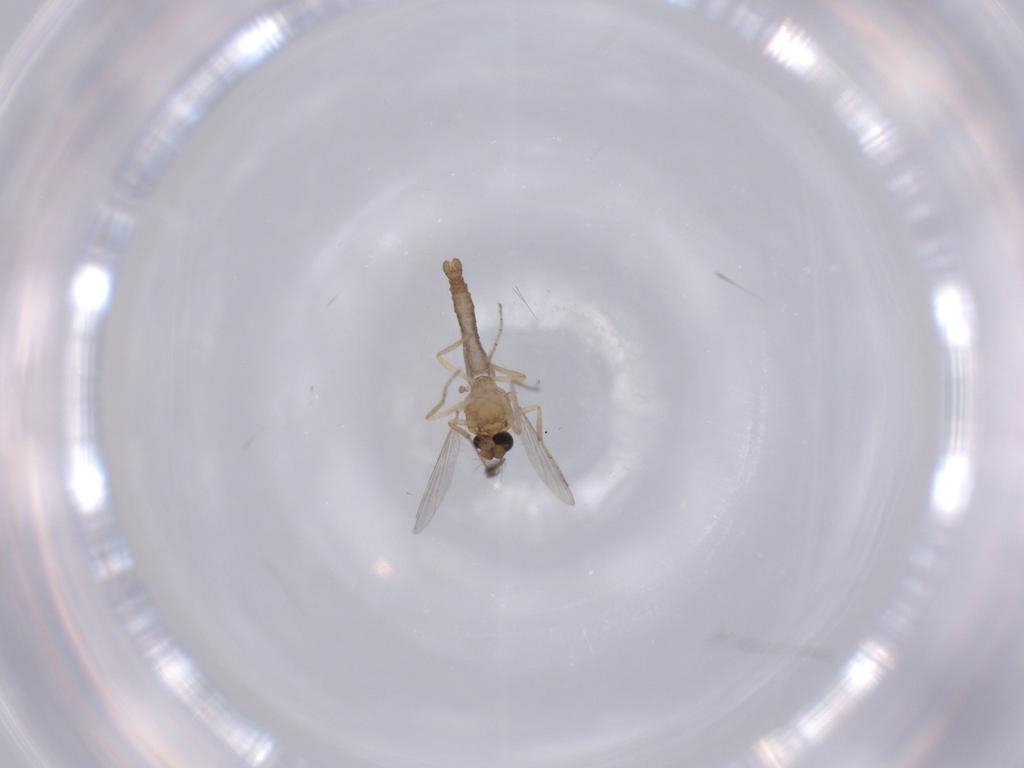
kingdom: Animalia
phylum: Arthropoda
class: Insecta
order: Diptera
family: Ceratopogonidae
